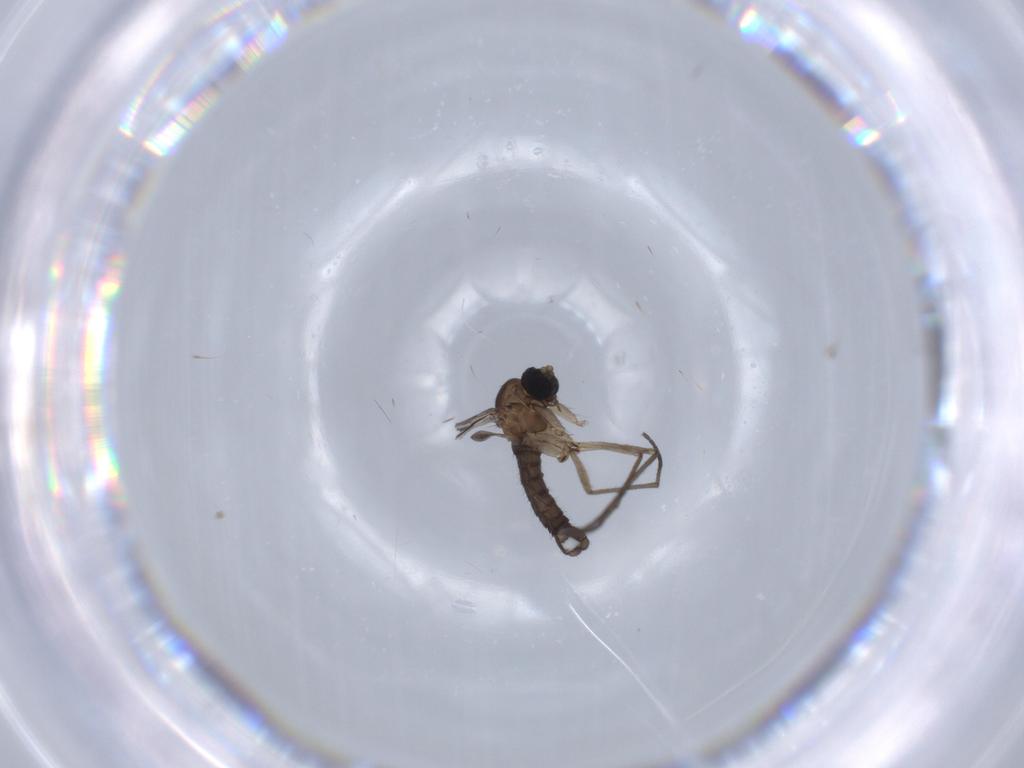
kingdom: Animalia
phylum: Arthropoda
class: Insecta
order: Diptera
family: Sciaridae
